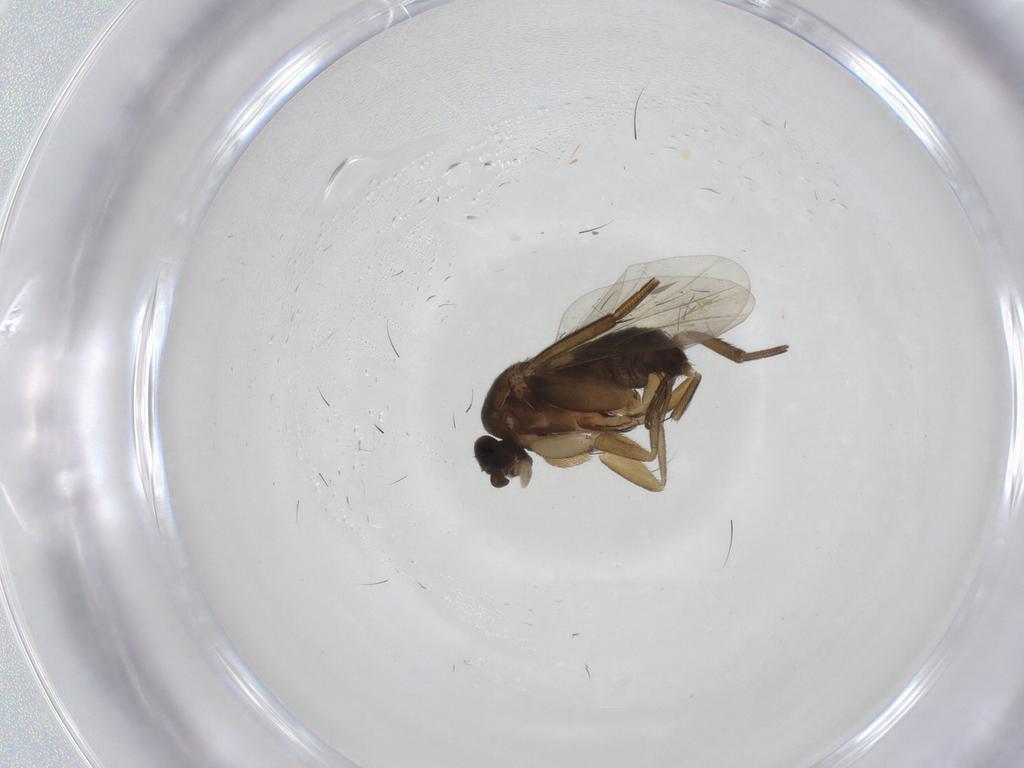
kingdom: Animalia
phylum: Arthropoda
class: Insecta
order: Diptera
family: Phoridae
